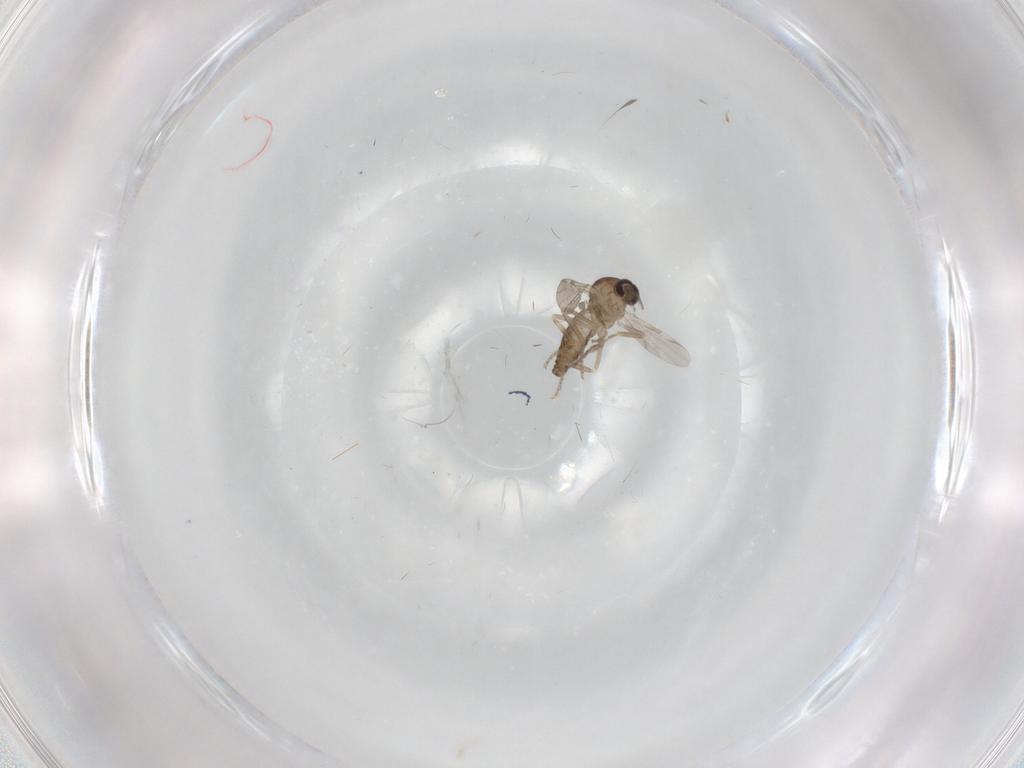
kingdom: Animalia
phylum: Arthropoda
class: Insecta
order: Diptera
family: Ceratopogonidae
